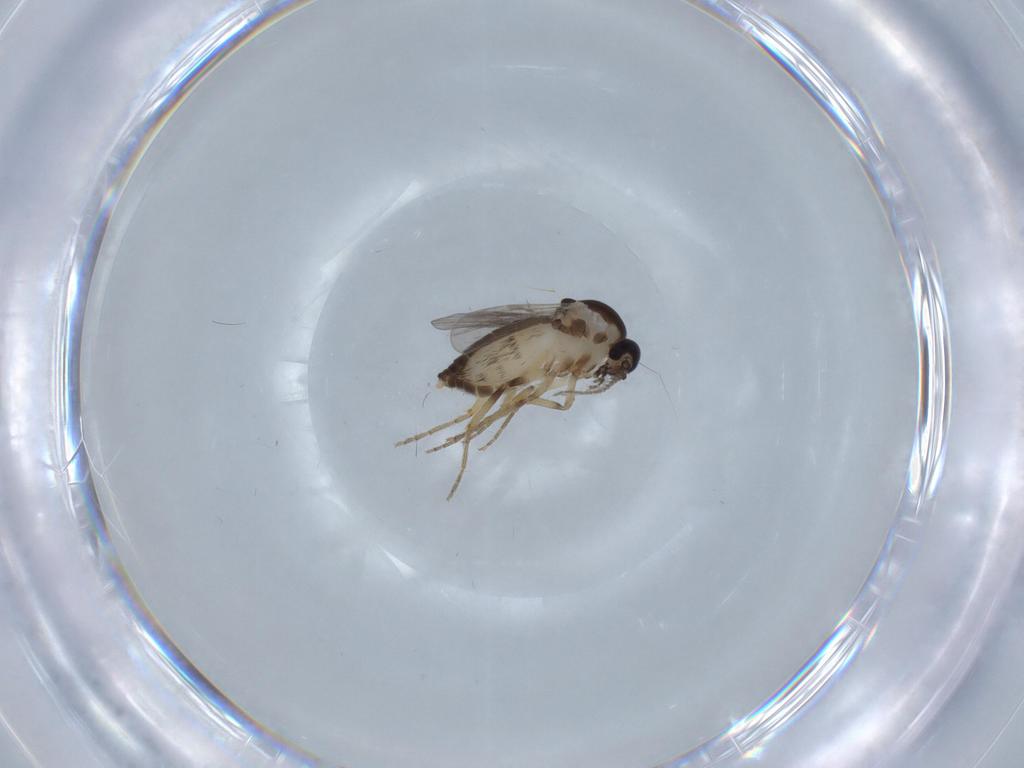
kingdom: Animalia
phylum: Arthropoda
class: Insecta
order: Diptera
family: Ceratopogonidae
